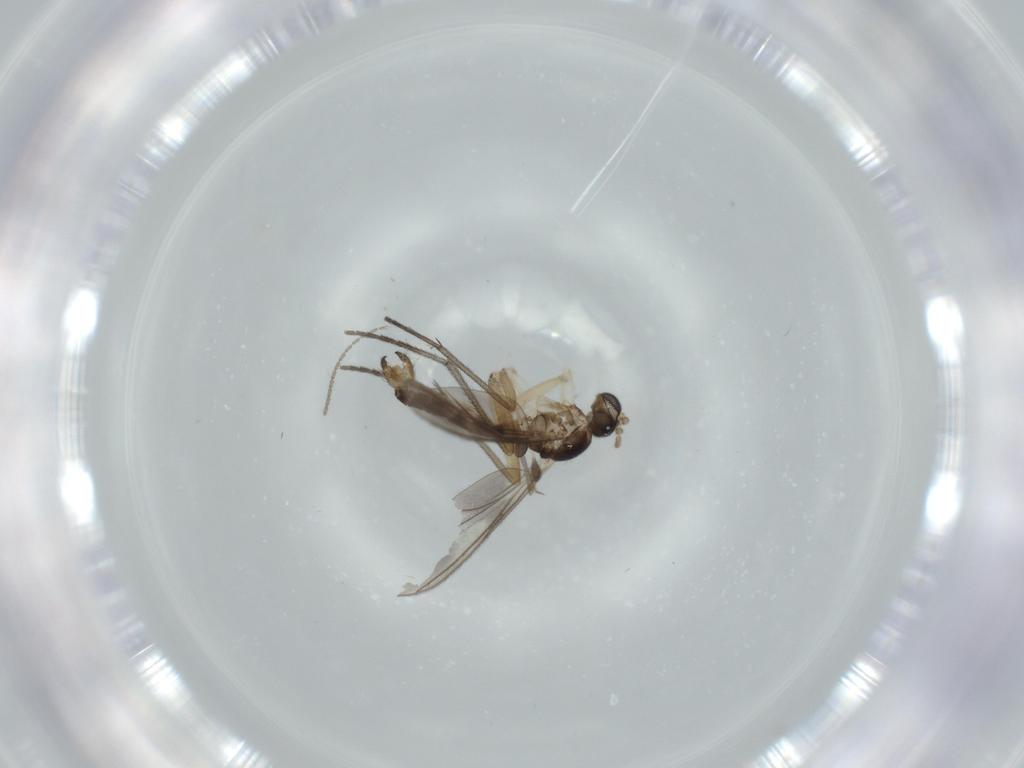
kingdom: Animalia
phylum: Arthropoda
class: Insecta
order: Diptera
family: Sciaridae
